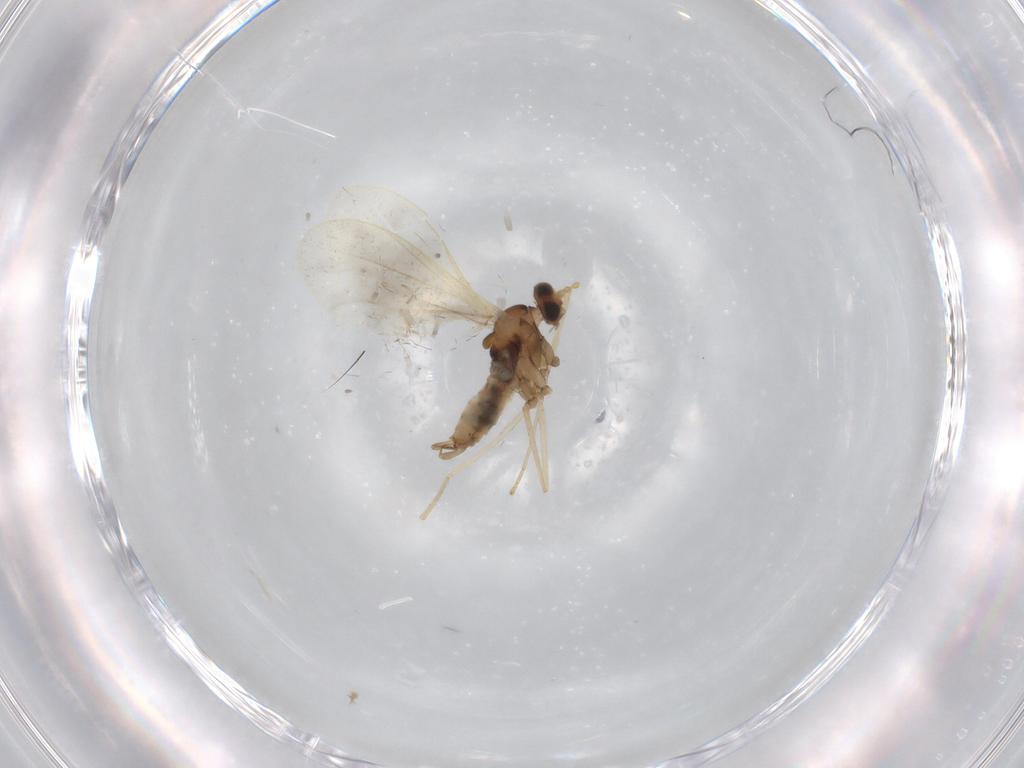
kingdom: Animalia
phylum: Arthropoda
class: Insecta
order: Diptera
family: Cecidomyiidae
